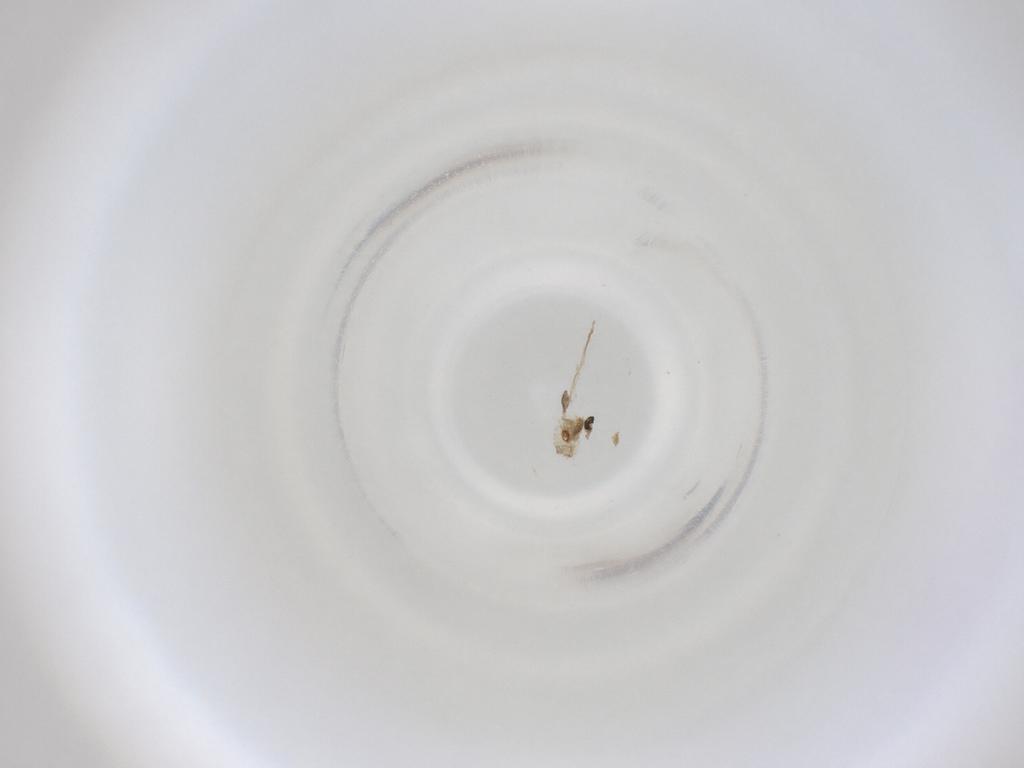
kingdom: Animalia
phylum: Arthropoda
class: Insecta
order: Diptera
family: Cecidomyiidae
